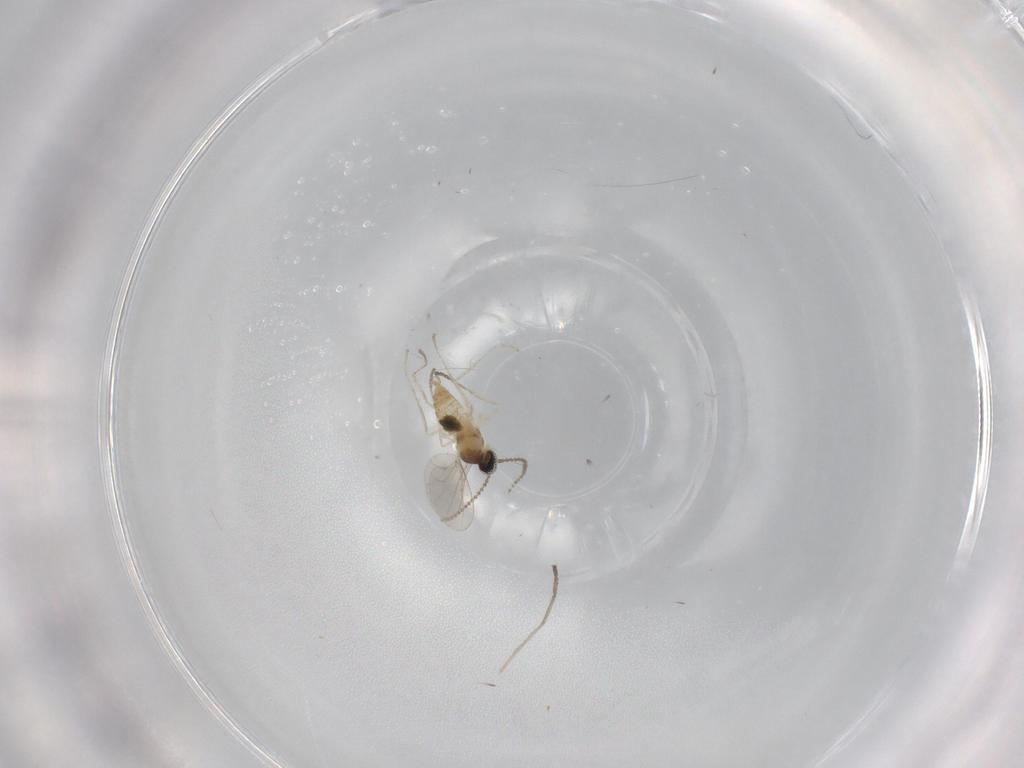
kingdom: Animalia
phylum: Arthropoda
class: Insecta
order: Diptera
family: Cecidomyiidae
